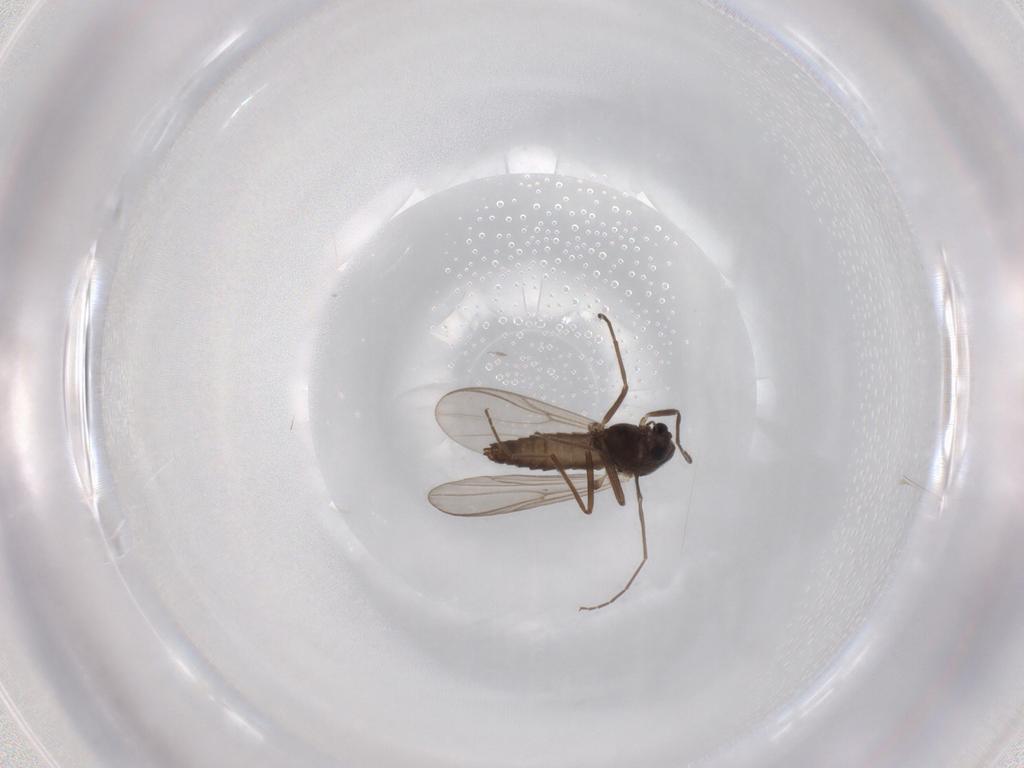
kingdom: Animalia
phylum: Arthropoda
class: Insecta
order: Diptera
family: Chironomidae
